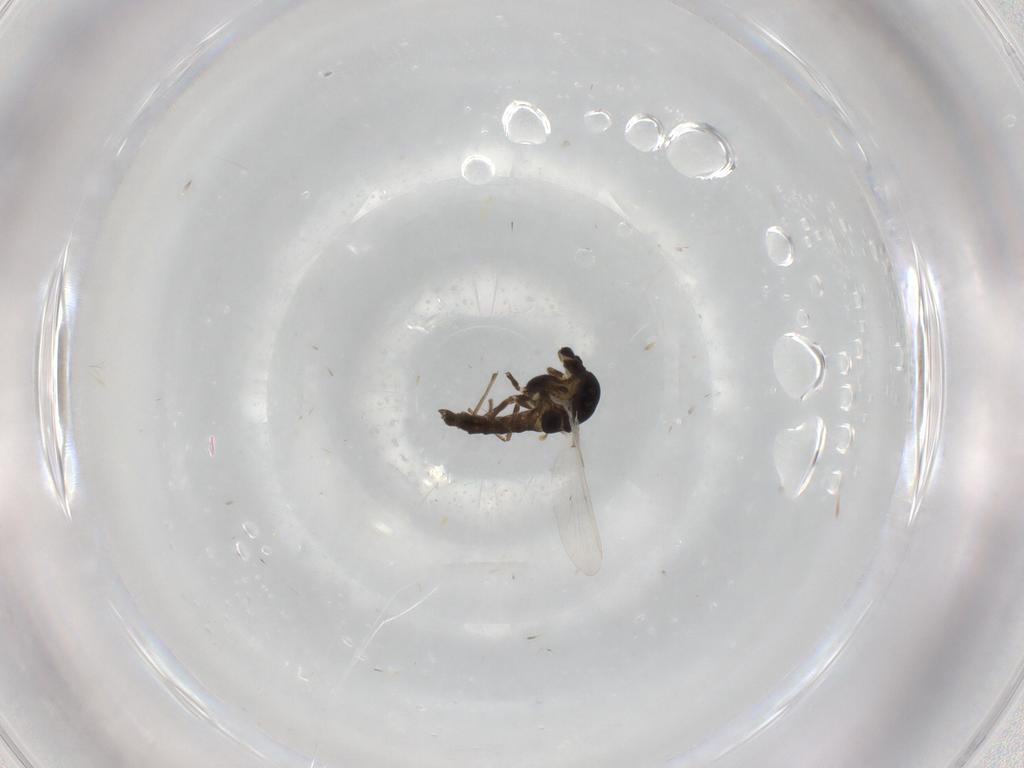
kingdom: Animalia
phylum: Arthropoda
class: Insecta
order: Diptera
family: Chironomidae
